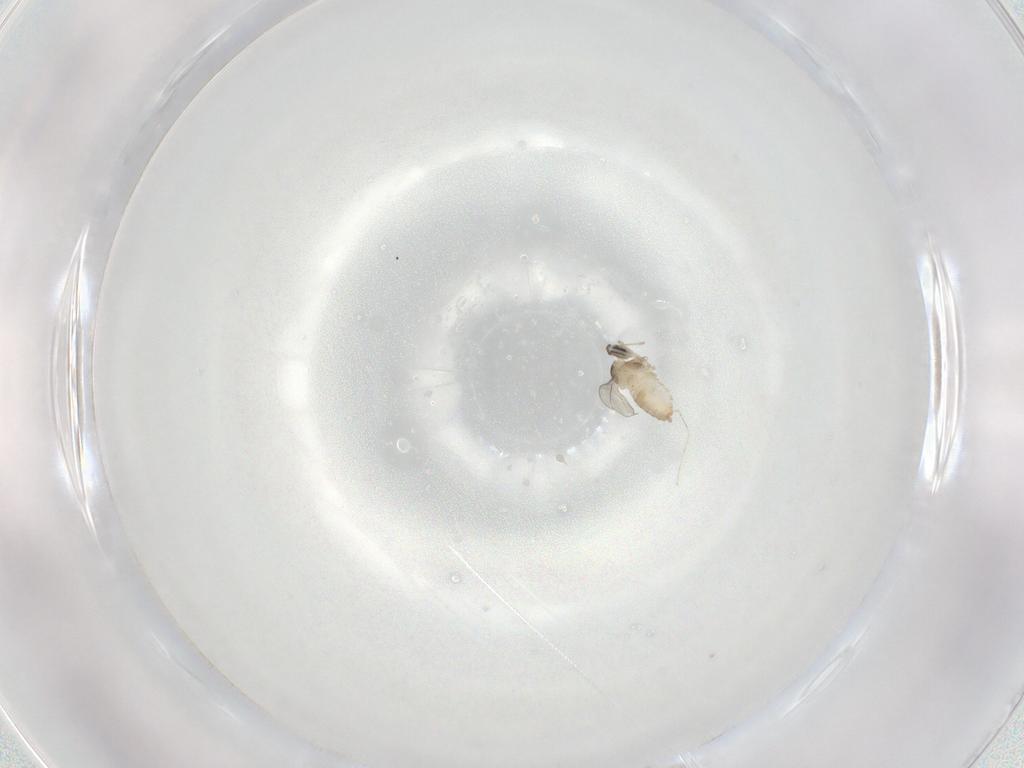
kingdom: Animalia
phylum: Arthropoda
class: Insecta
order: Diptera
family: Cecidomyiidae
